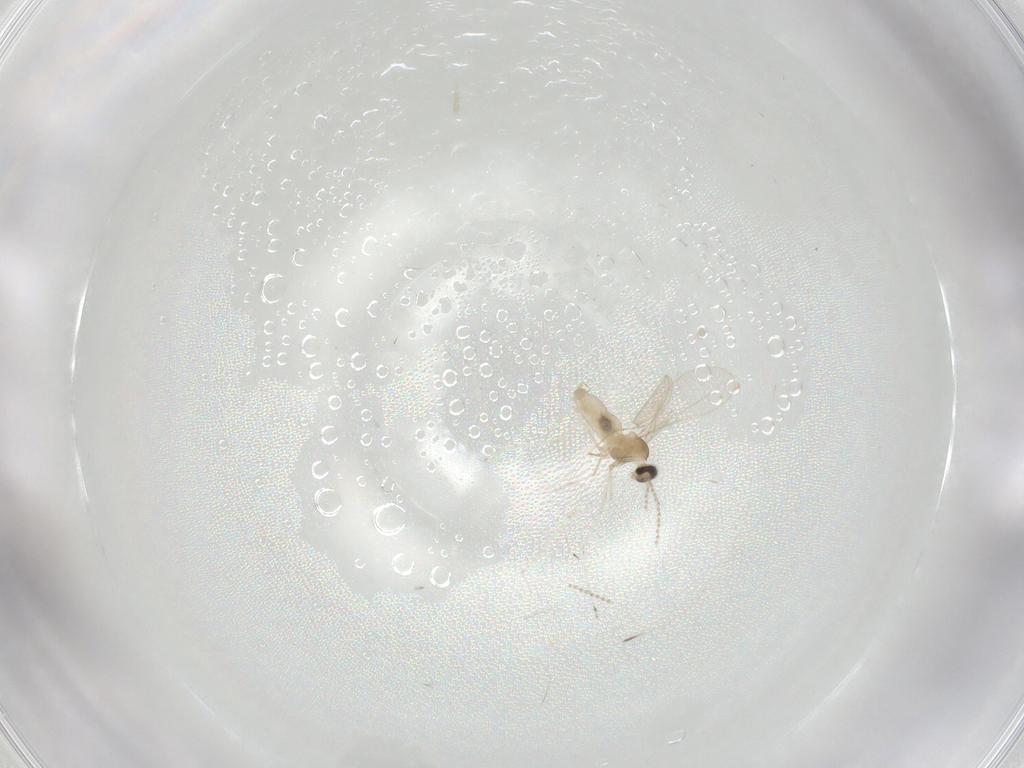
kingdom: Animalia
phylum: Arthropoda
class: Insecta
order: Diptera
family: Cecidomyiidae
